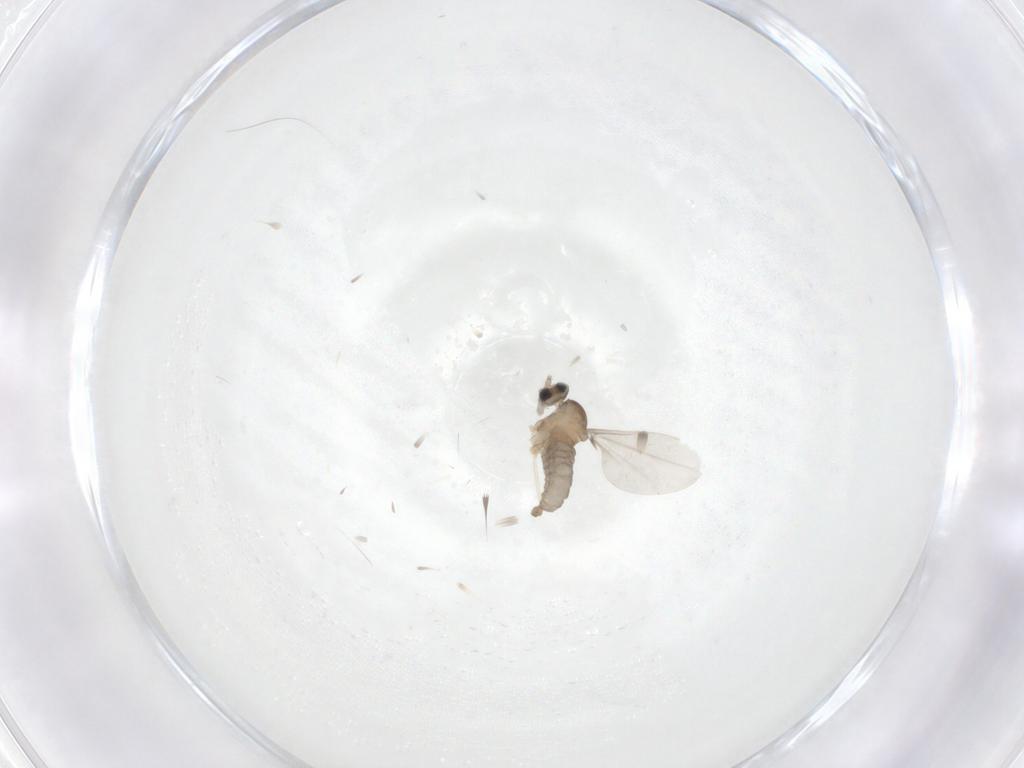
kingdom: Animalia
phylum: Arthropoda
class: Insecta
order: Diptera
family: Cecidomyiidae
